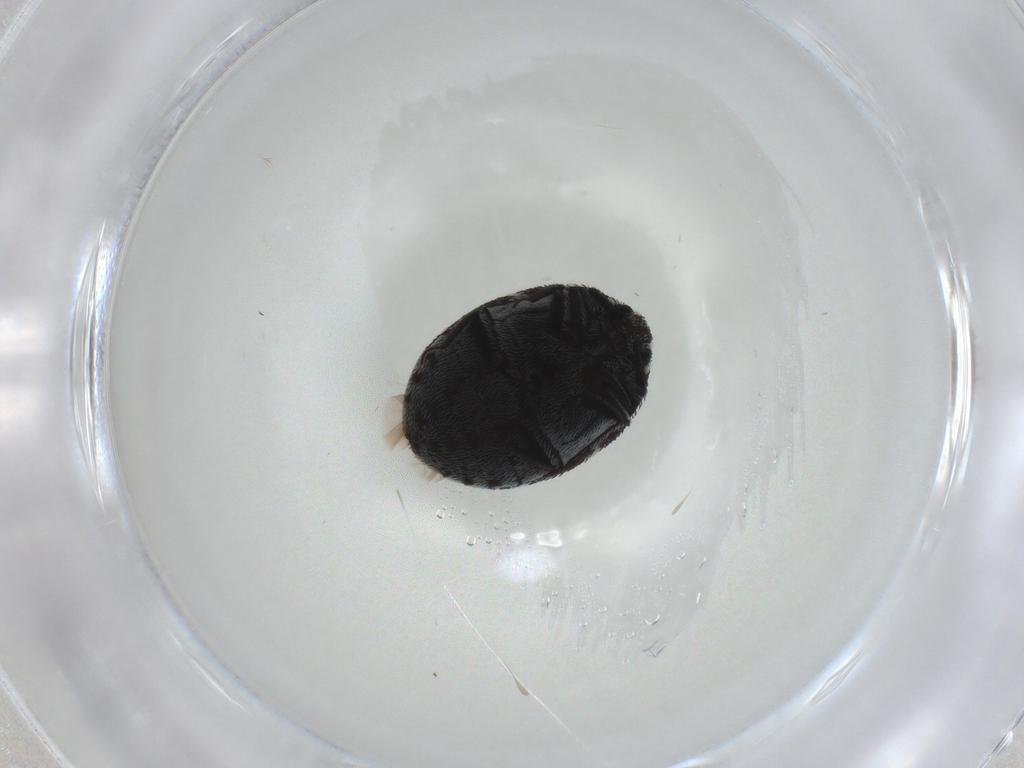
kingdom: Animalia
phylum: Arthropoda
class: Insecta
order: Coleoptera
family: Dermestidae
